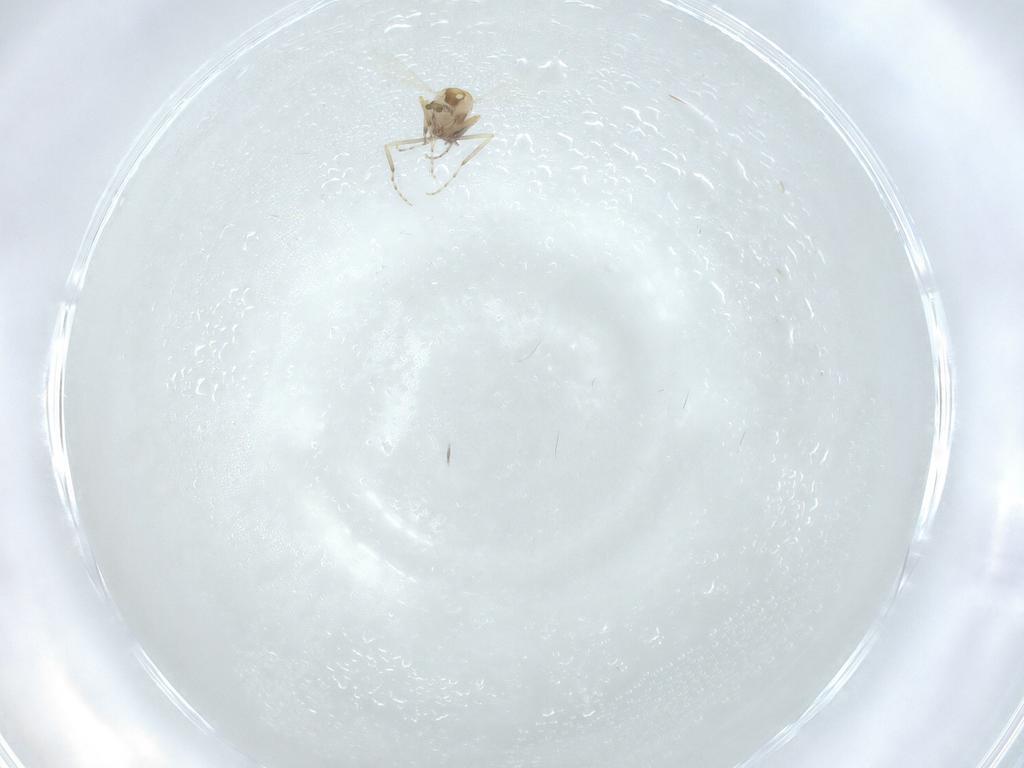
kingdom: Animalia
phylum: Arthropoda
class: Insecta
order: Diptera
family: Ceratopogonidae
